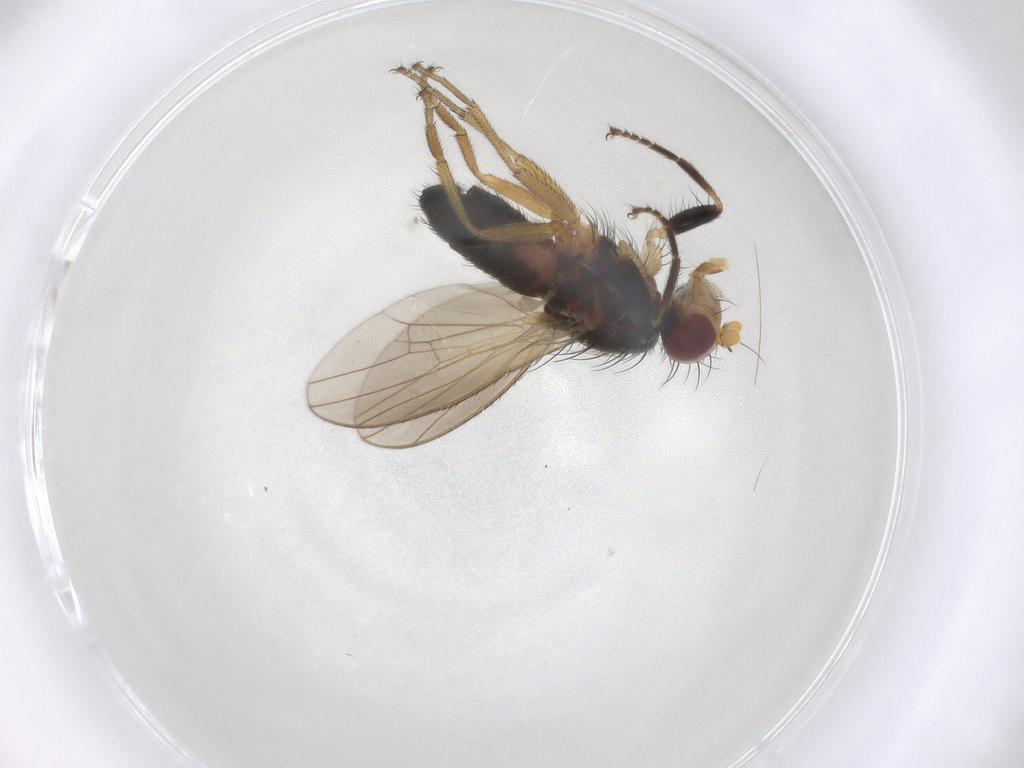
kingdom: Animalia
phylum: Arthropoda
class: Insecta
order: Diptera
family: Heleomyzidae
